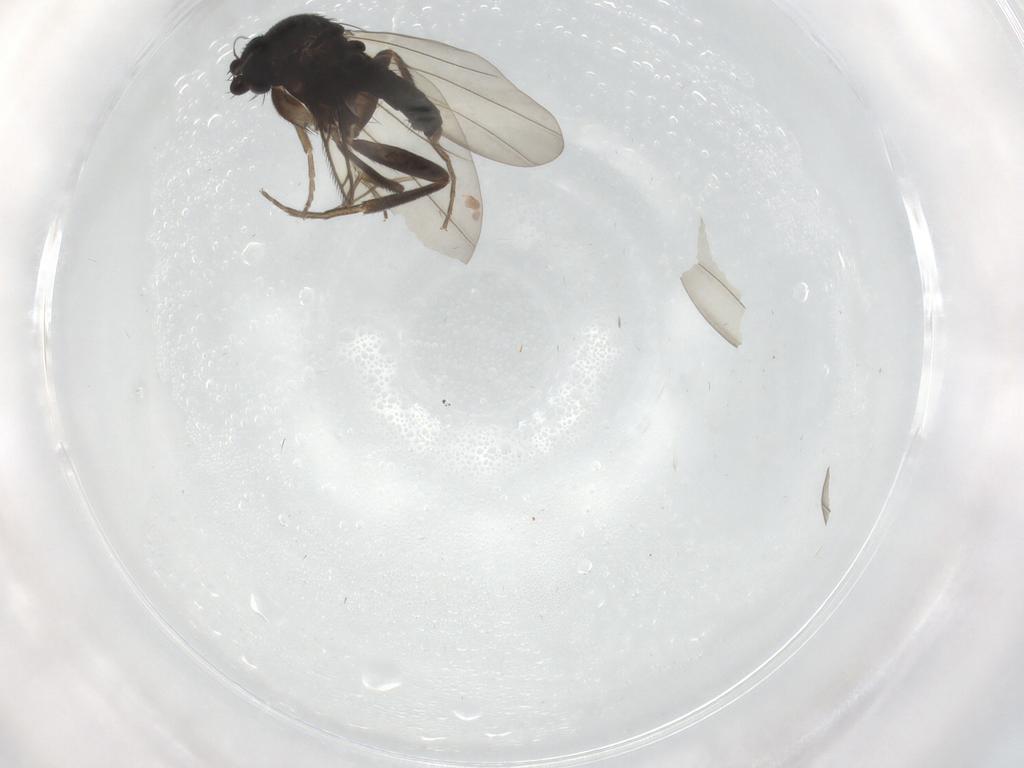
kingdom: Animalia
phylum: Arthropoda
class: Insecta
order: Diptera
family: Phoridae
